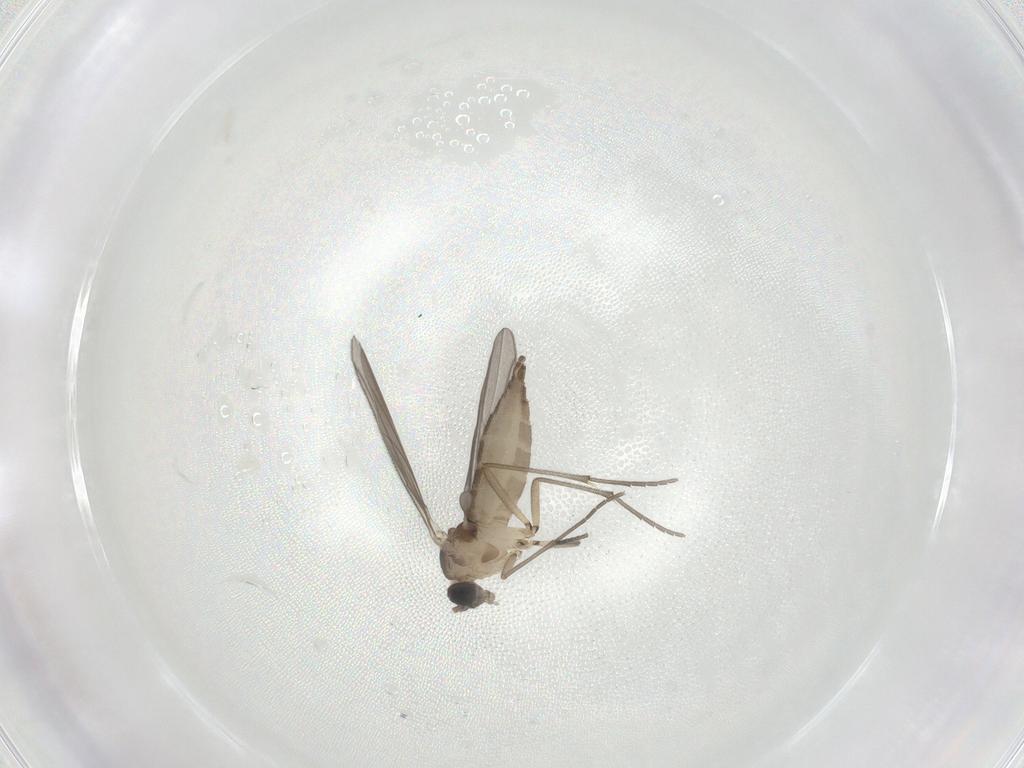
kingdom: Animalia
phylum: Arthropoda
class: Insecta
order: Diptera
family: Sciaridae
